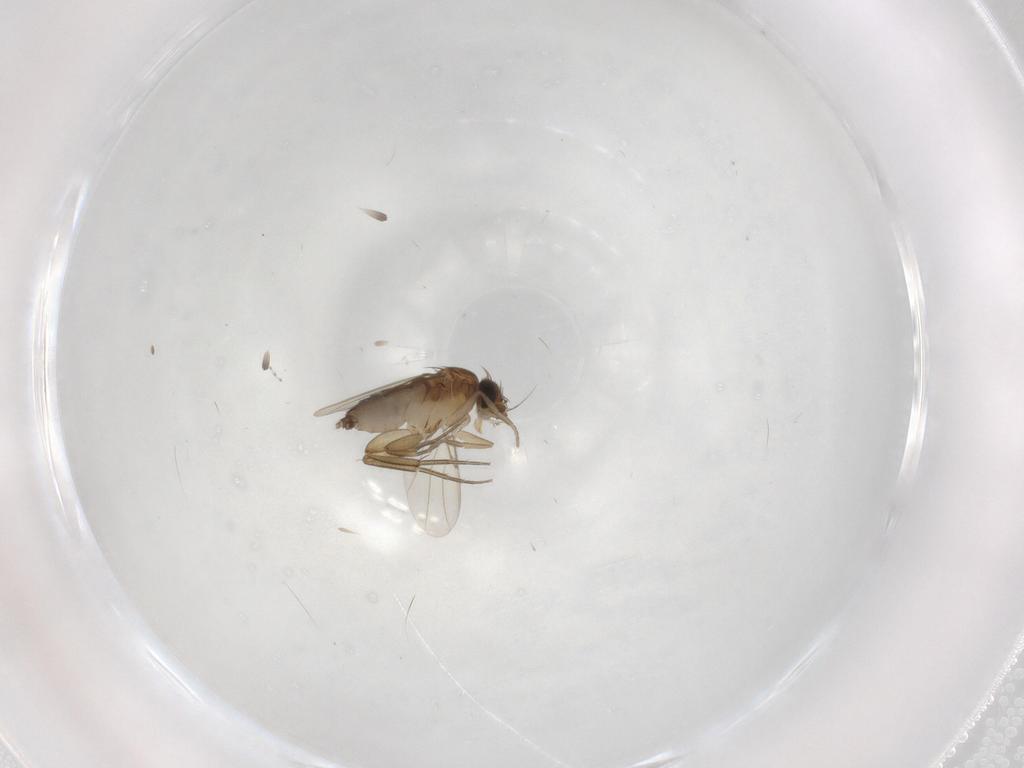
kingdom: Animalia
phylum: Arthropoda
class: Insecta
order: Diptera
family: Phoridae
